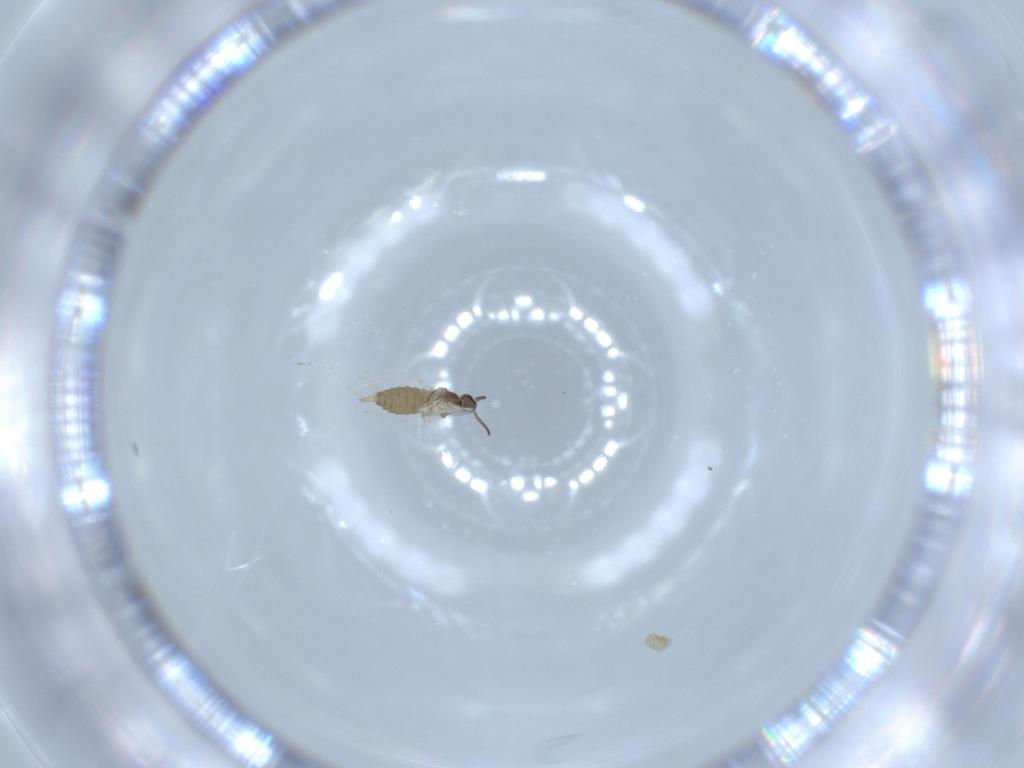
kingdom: Animalia
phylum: Arthropoda
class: Insecta
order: Diptera
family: Cecidomyiidae
